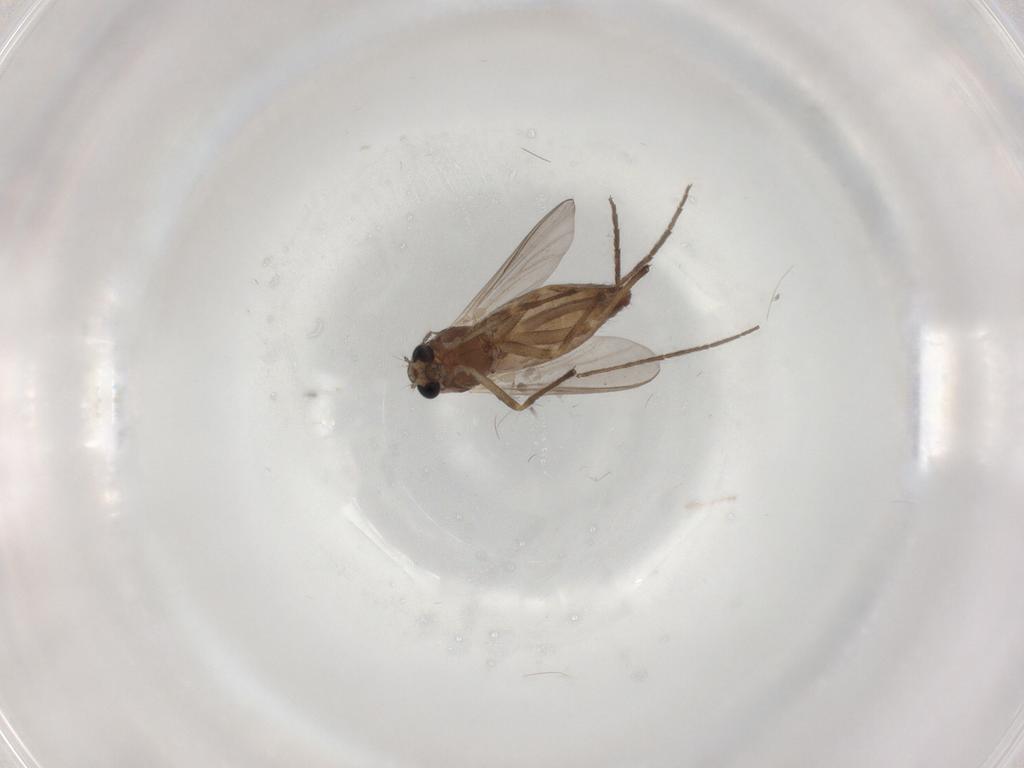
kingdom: Animalia
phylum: Arthropoda
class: Insecta
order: Diptera
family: Chironomidae
